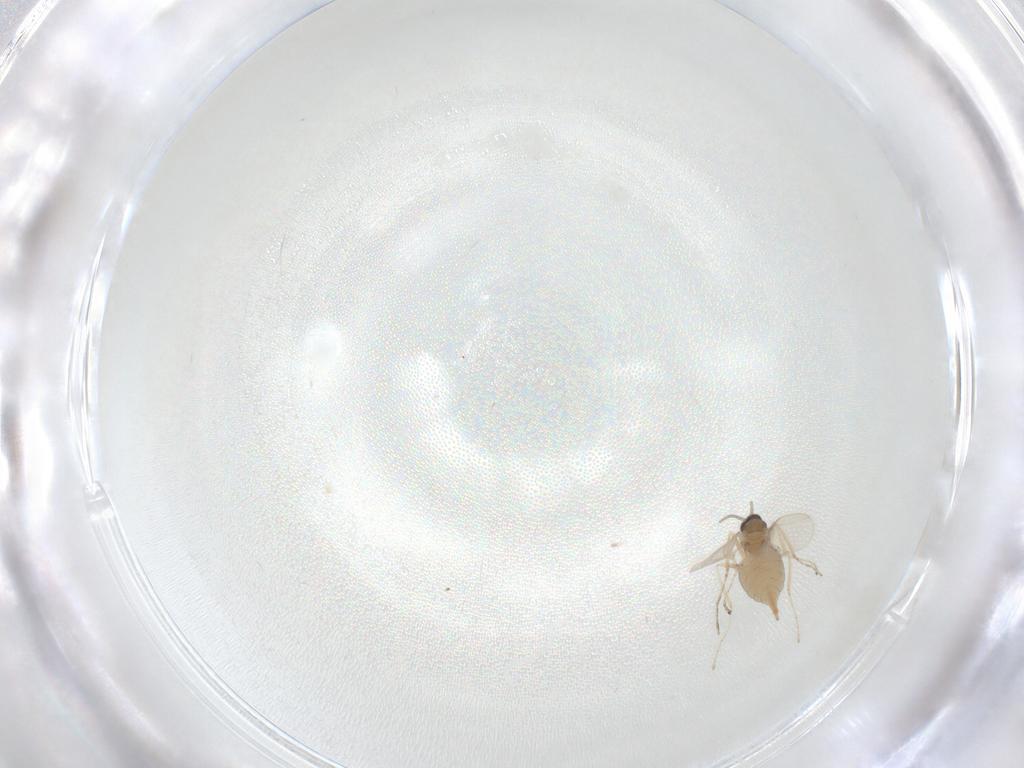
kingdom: Animalia
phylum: Arthropoda
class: Insecta
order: Diptera
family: Cecidomyiidae
